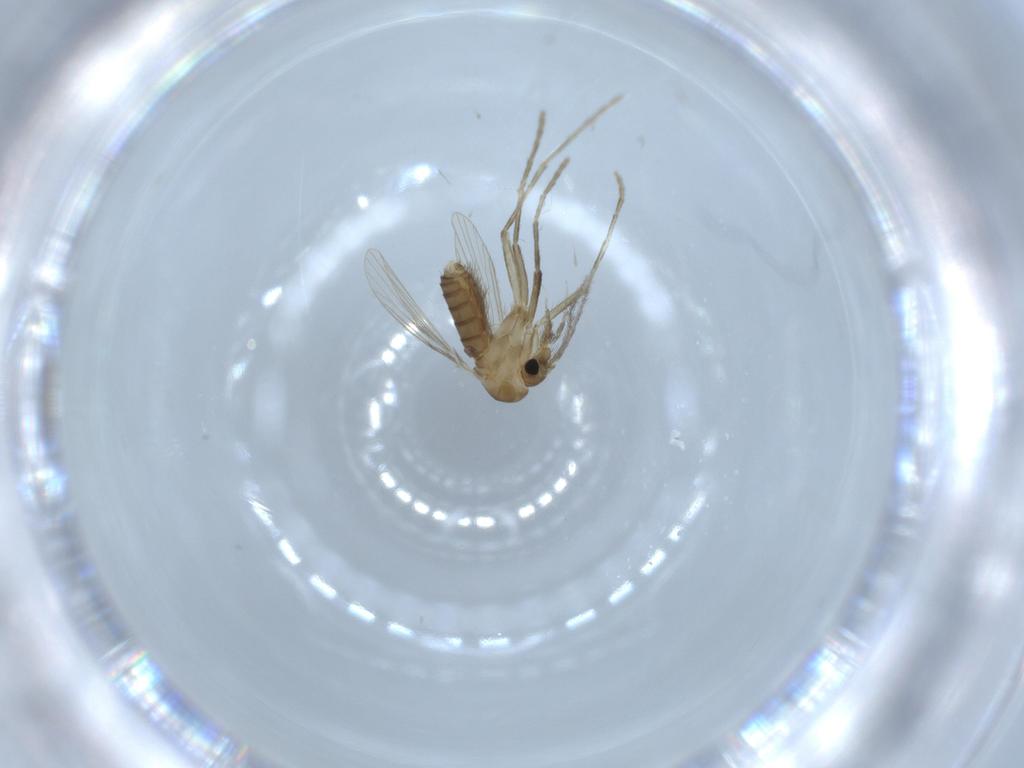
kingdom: Animalia
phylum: Arthropoda
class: Insecta
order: Diptera
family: Psychodidae
